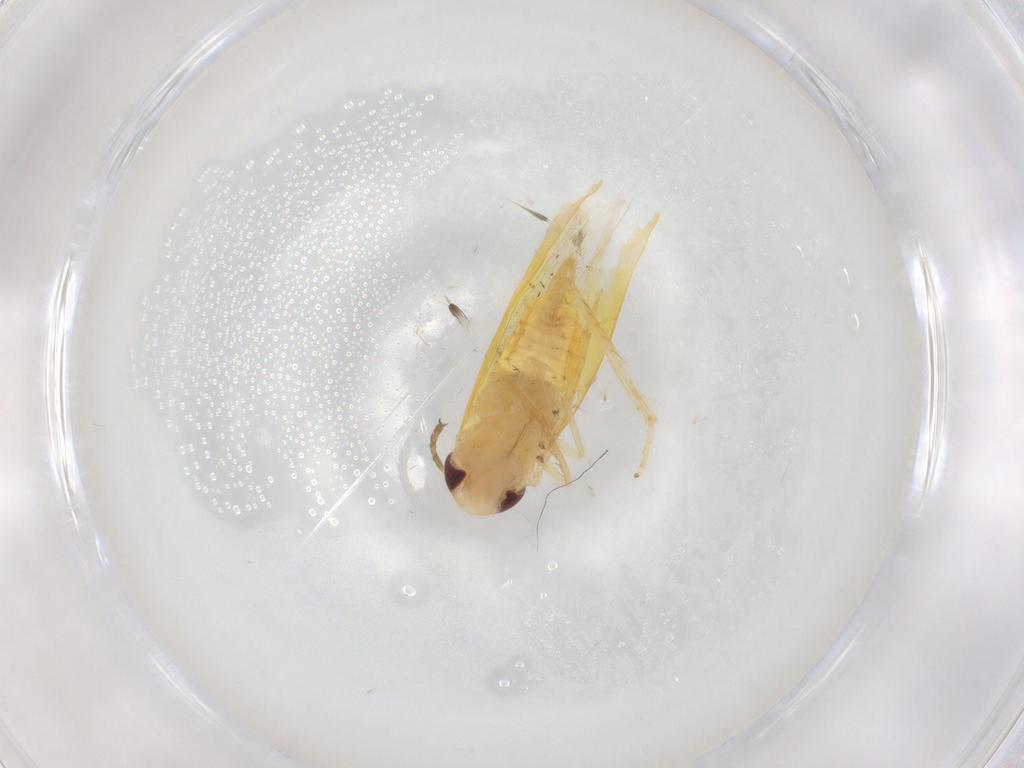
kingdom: Animalia
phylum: Arthropoda
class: Insecta
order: Hemiptera
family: Cicadellidae
